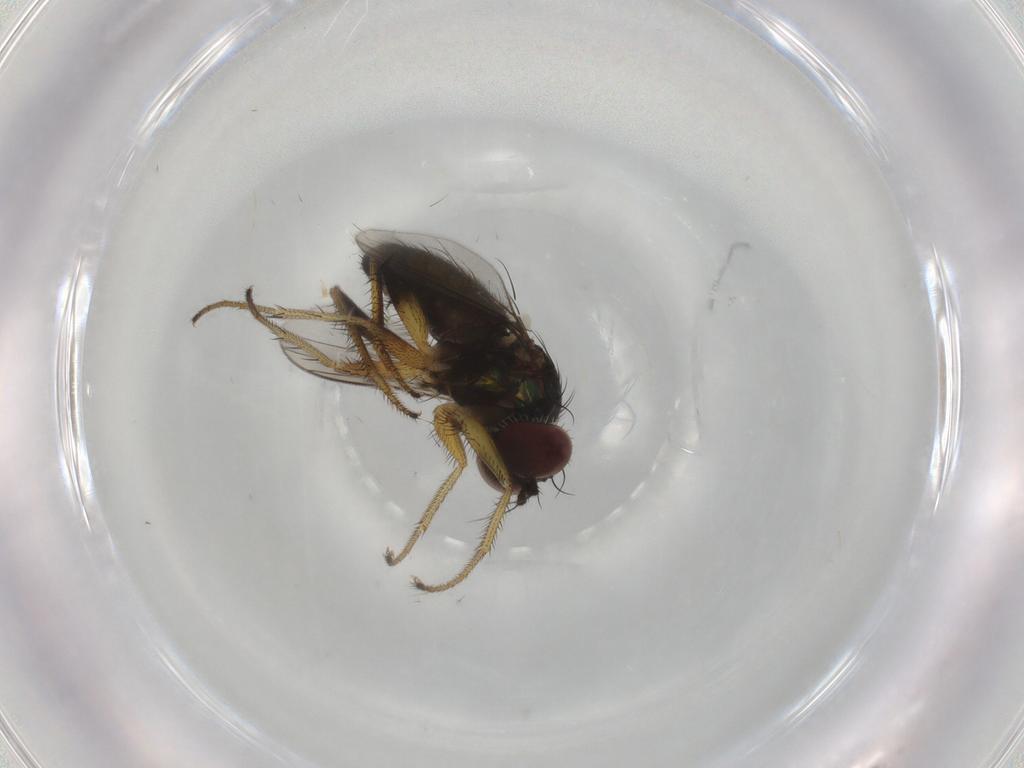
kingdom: Animalia
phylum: Arthropoda
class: Insecta
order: Diptera
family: Dolichopodidae
